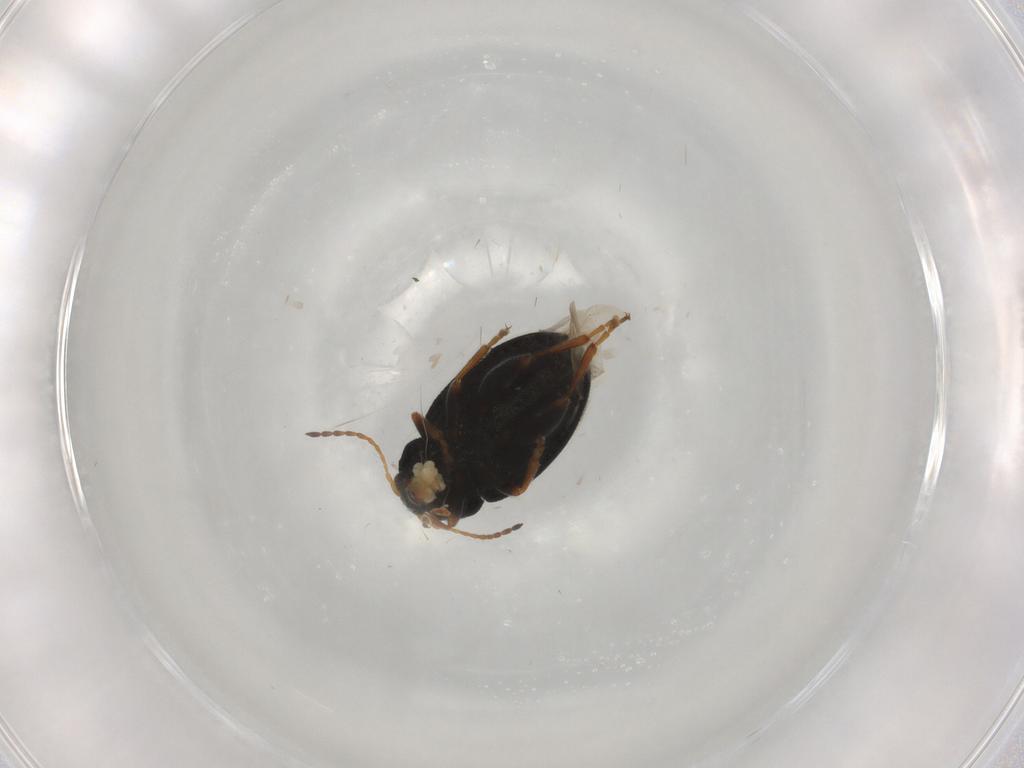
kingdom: Animalia
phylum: Arthropoda
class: Insecta
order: Coleoptera
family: Chrysomelidae
